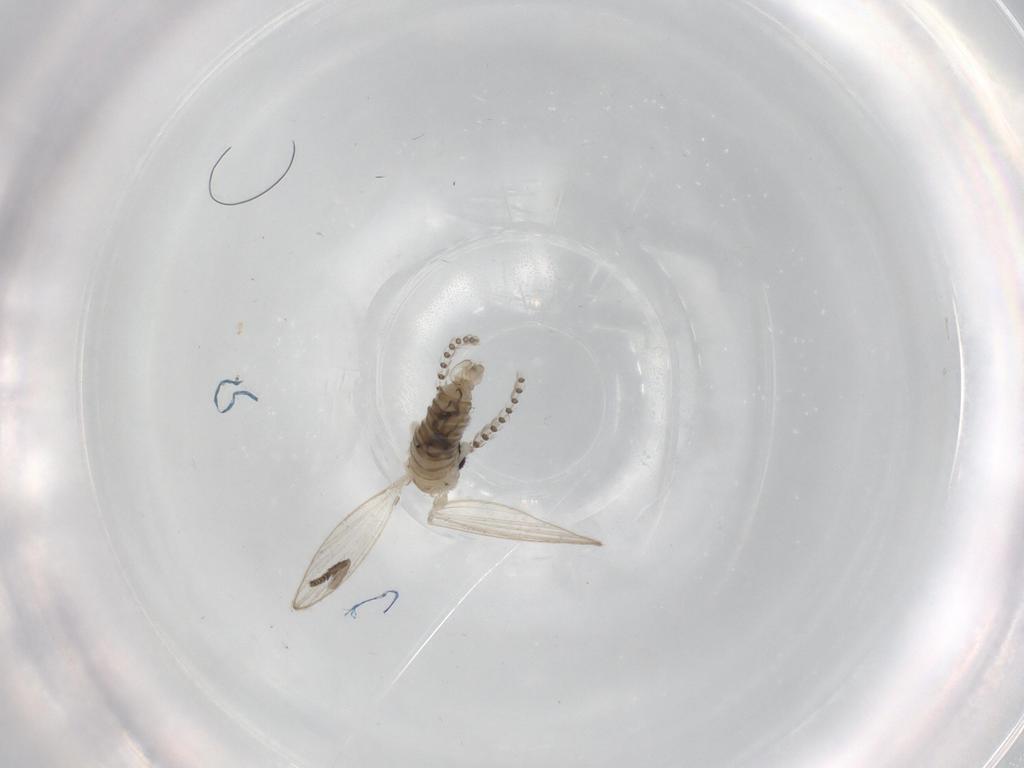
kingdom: Animalia
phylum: Arthropoda
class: Insecta
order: Diptera
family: Psychodidae
